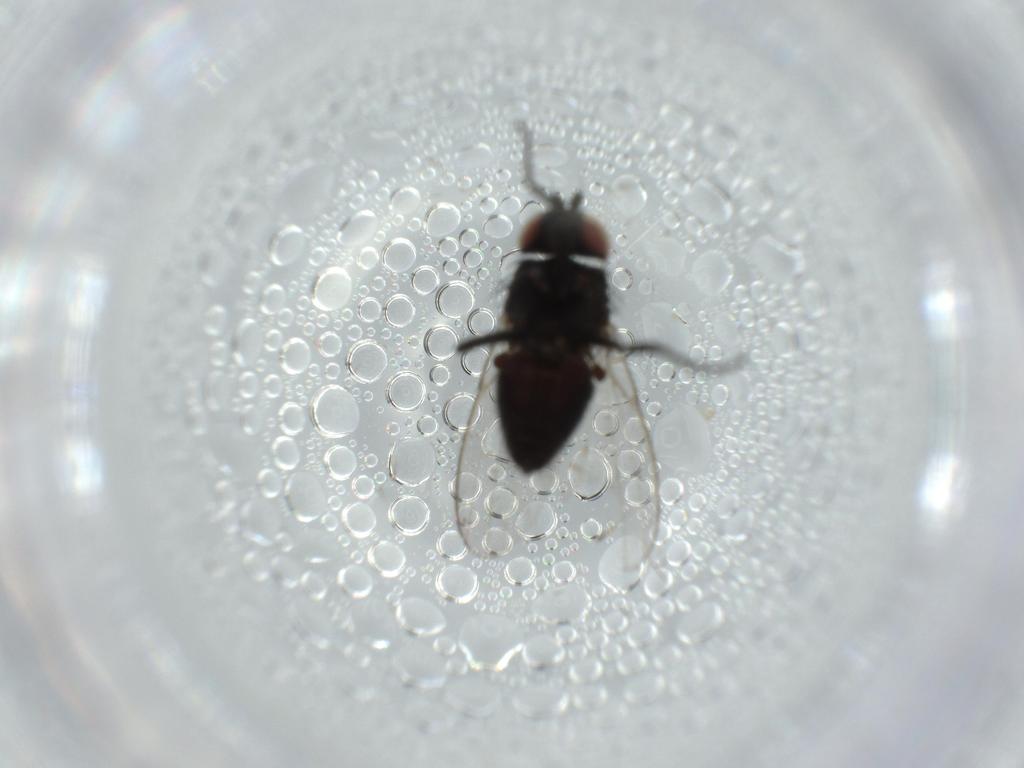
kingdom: Animalia
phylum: Arthropoda
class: Insecta
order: Diptera
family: Milichiidae
